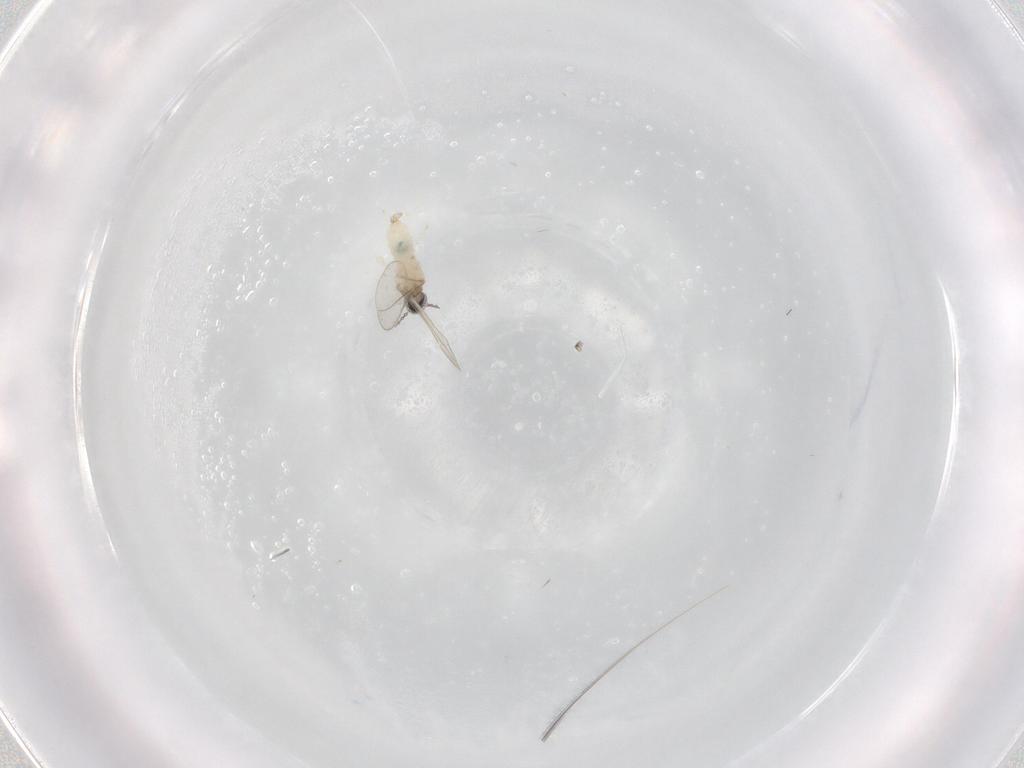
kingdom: Animalia
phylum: Arthropoda
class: Insecta
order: Diptera
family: Cecidomyiidae
